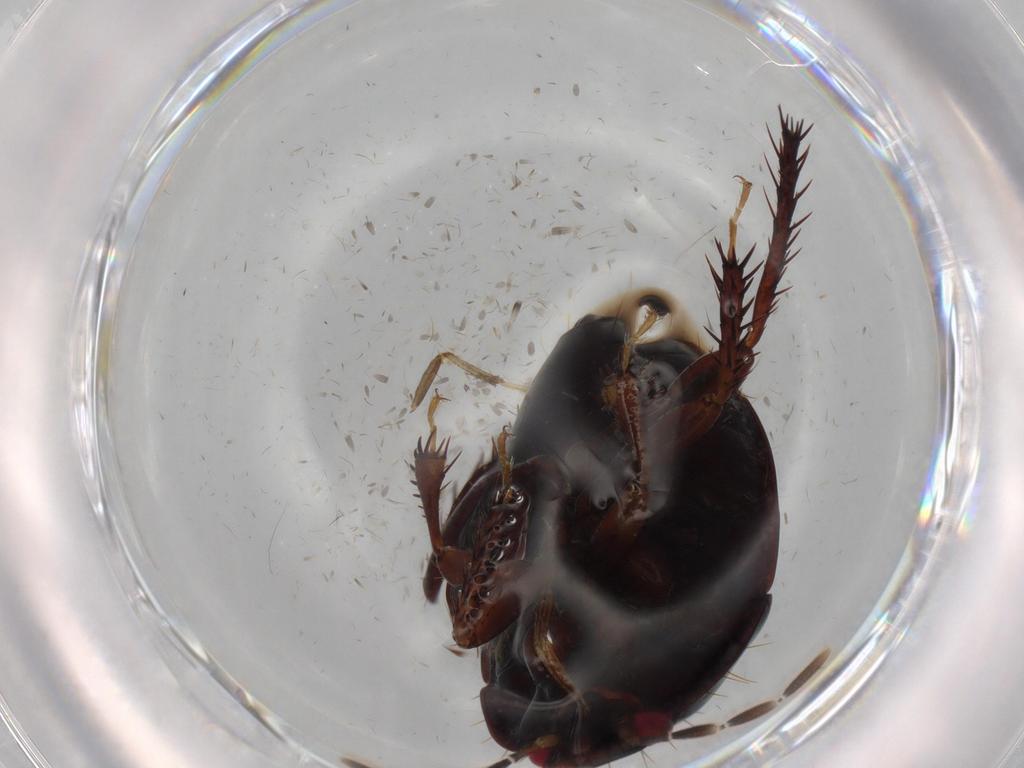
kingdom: Animalia
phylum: Arthropoda
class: Insecta
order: Hemiptera
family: Cydnidae
